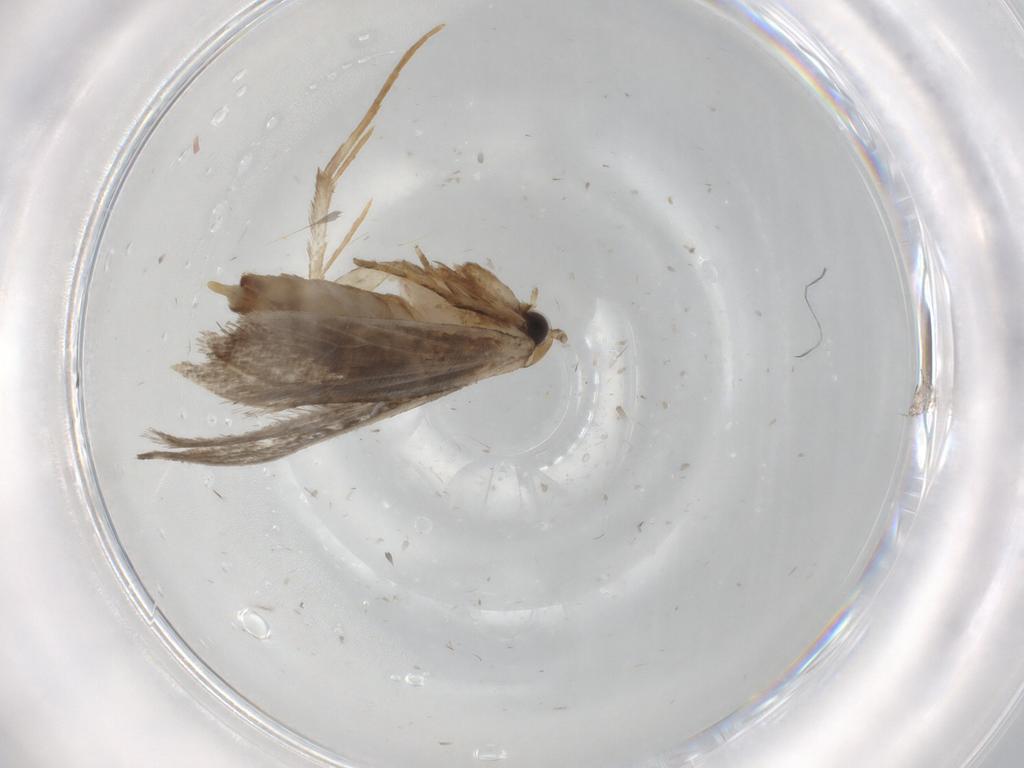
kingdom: Animalia
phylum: Arthropoda
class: Insecta
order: Lepidoptera
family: Tineidae
